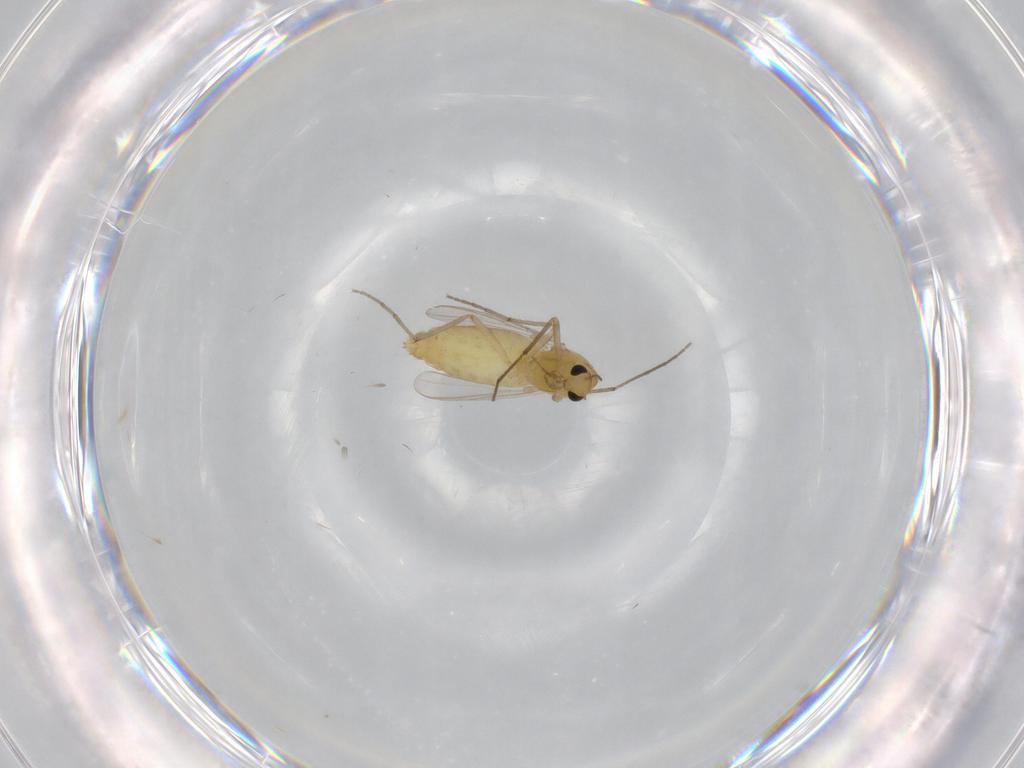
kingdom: Animalia
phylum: Arthropoda
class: Insecta
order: Diptera
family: Chironomidae
